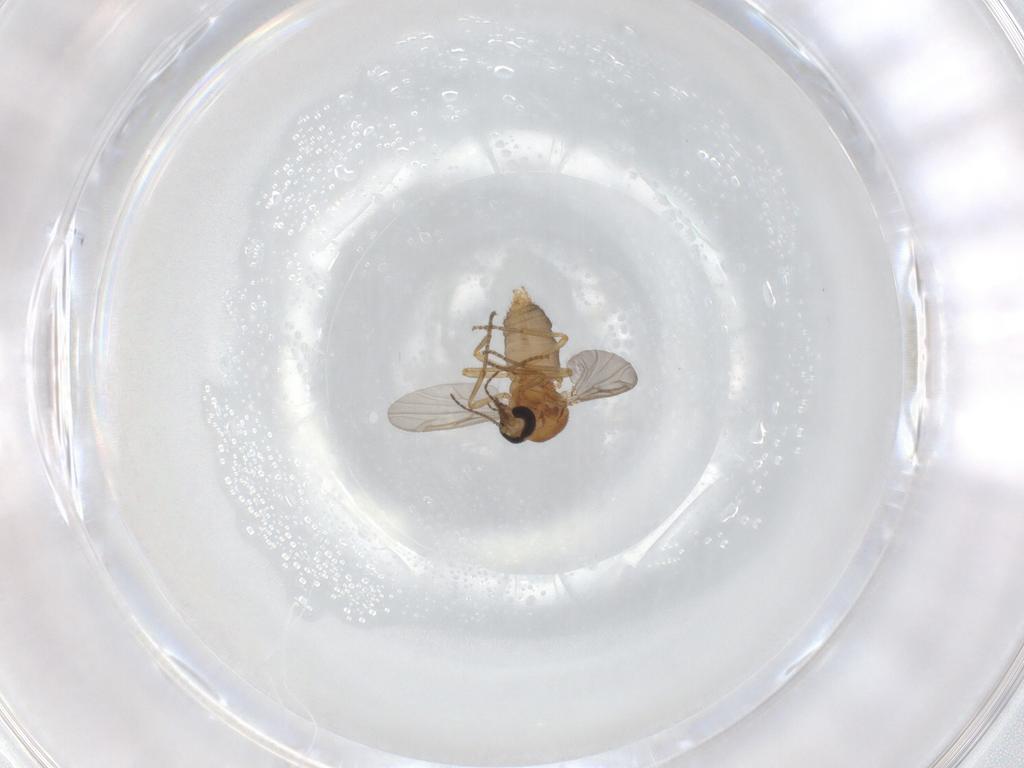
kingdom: Animalia
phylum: Arthropoda
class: Insecta
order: Diptera
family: Ceratopogonidae
